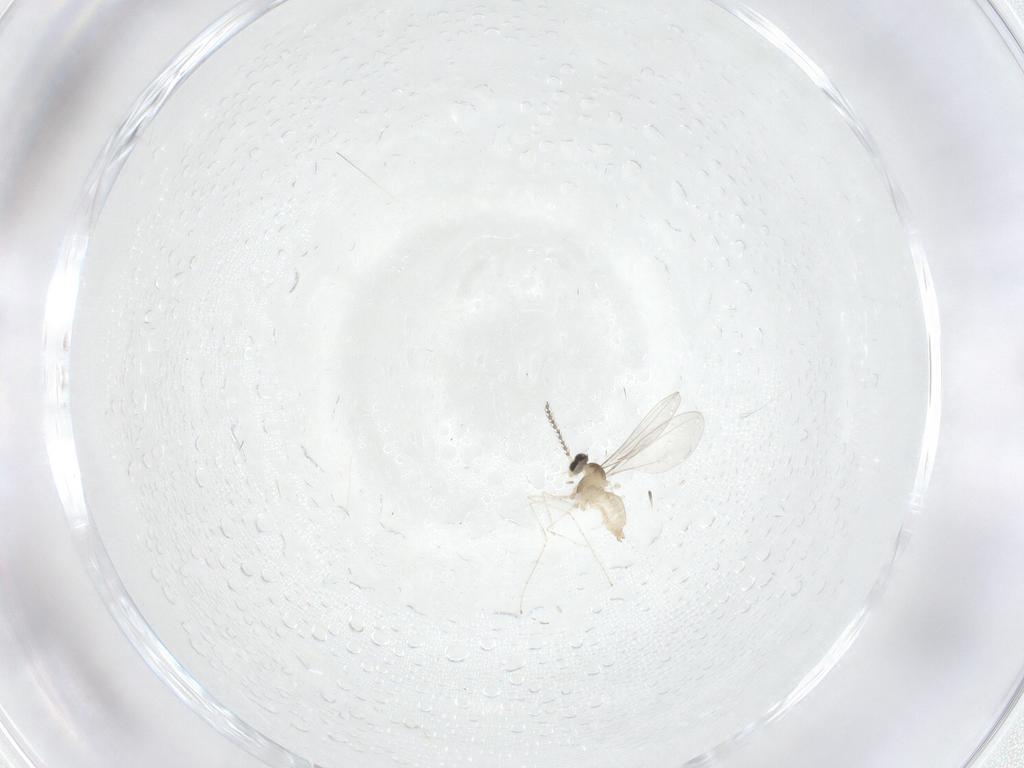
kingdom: Animalia
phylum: Arthropoda
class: Insecta
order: Diptera
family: Cecidomyiidae
